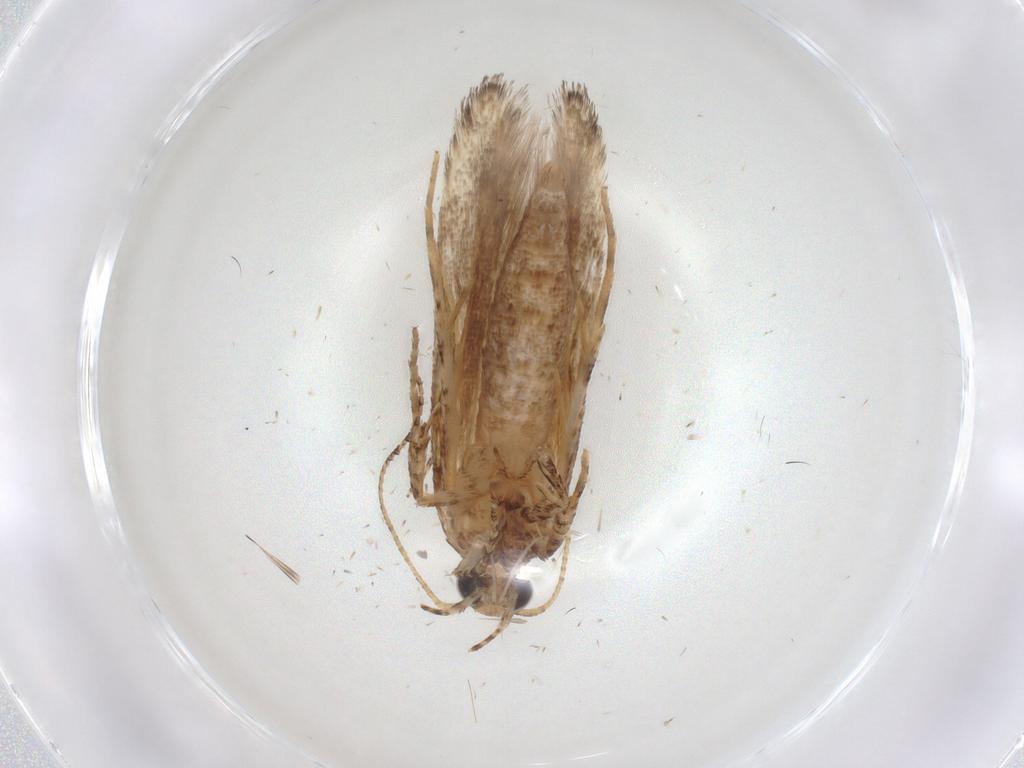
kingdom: Animalia
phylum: Arthropoda
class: Insecta
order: Lepidoptera
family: Gelechiidae
